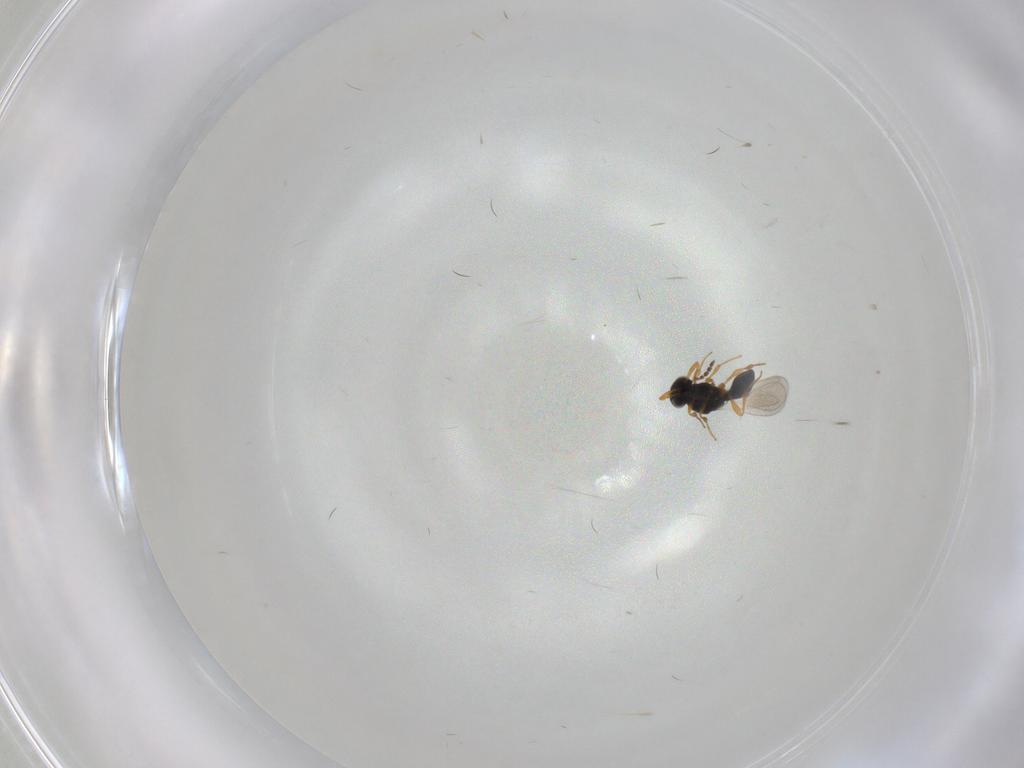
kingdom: Animalia
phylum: Arthropoda
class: Insecta
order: Hymenoptera
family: Platygastridae
